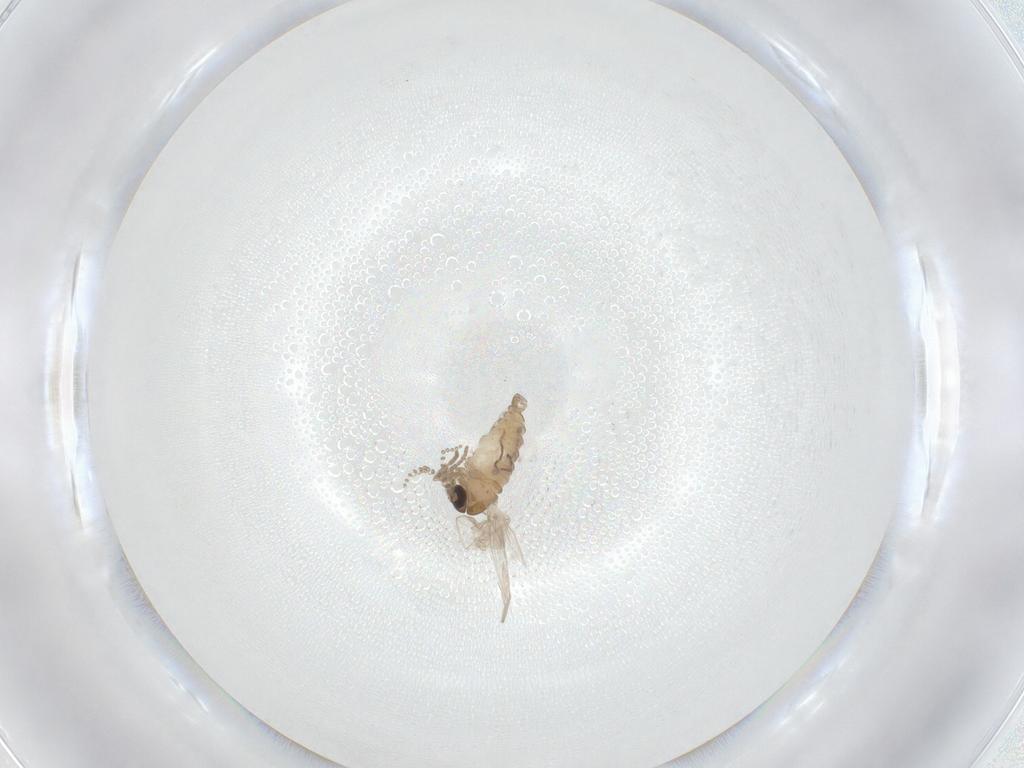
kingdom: Animalia
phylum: Arthropoda
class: Insecta
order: Diptera
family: Psychodidae
